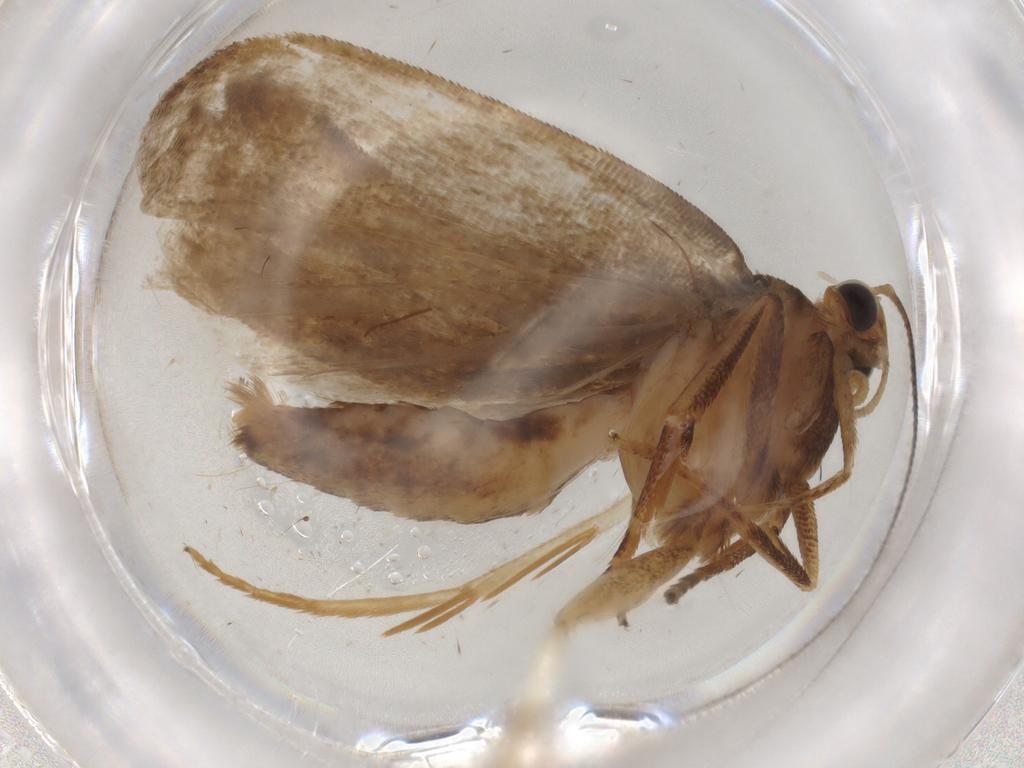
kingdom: Animalia
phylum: Arthropoda
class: Insecta
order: Lepidoptera
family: Gelechiidae
